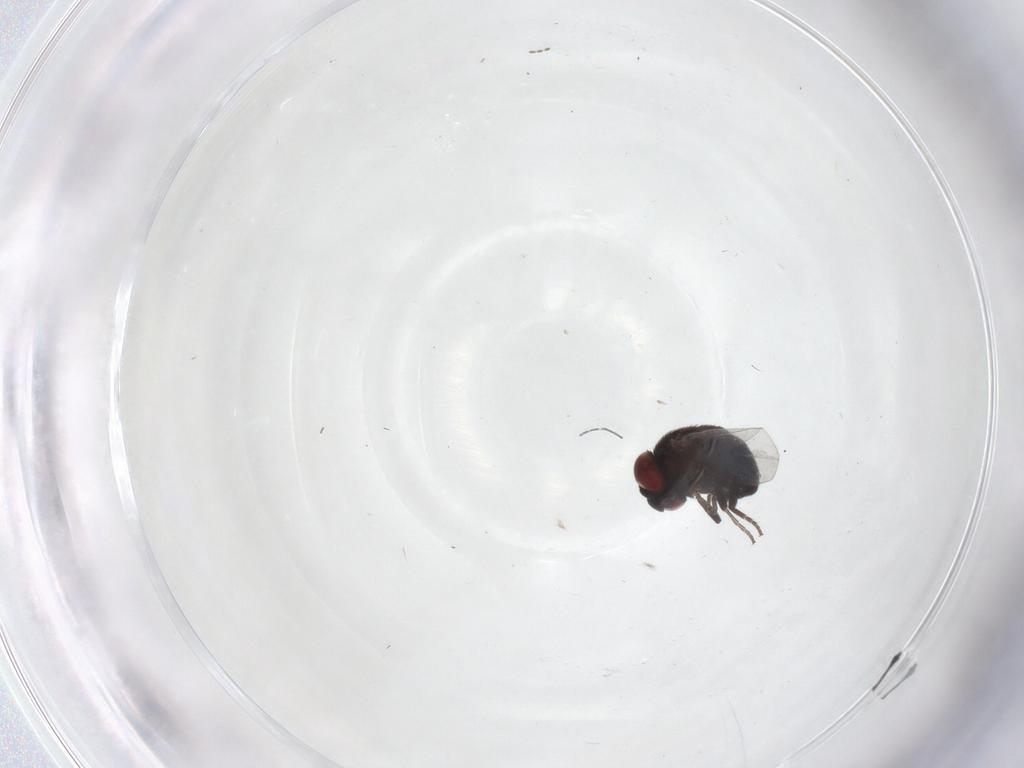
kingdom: Animalia
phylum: Arthropoda
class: Insecta
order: Diptera
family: Cryptochetidae
